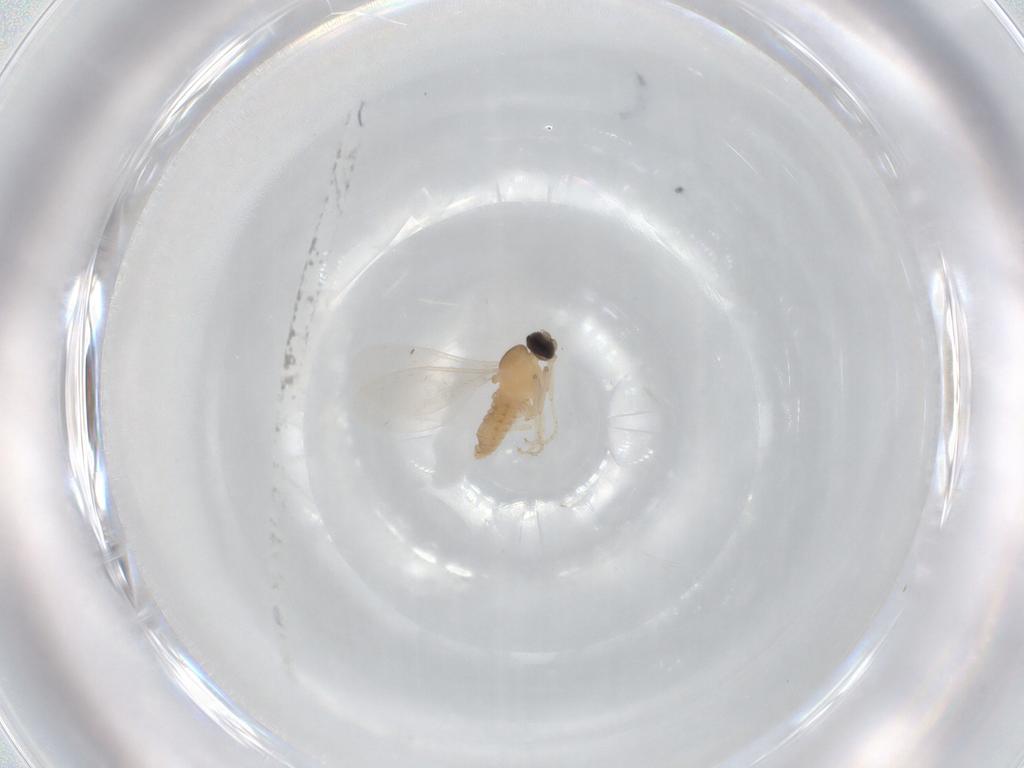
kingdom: Animalia
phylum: Arthropoda
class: Insecta
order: Diptera
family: Cecidomyiidae
